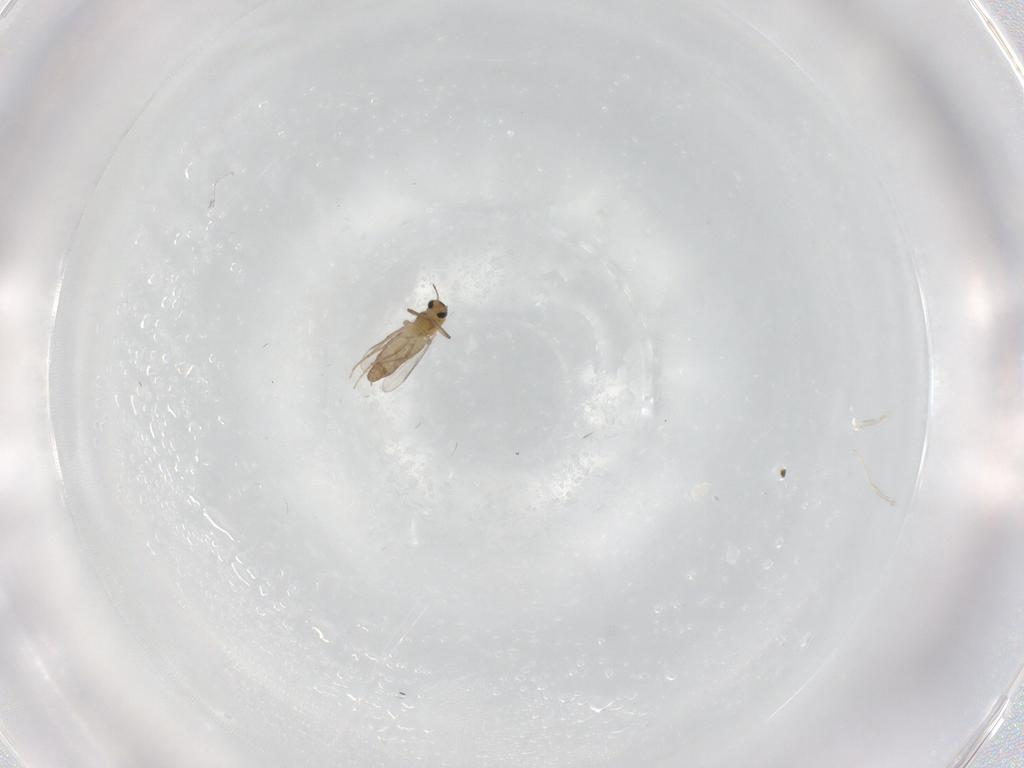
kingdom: Animalia
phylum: Arthropoda
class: Insecta
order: Diptera
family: Chironomidae
